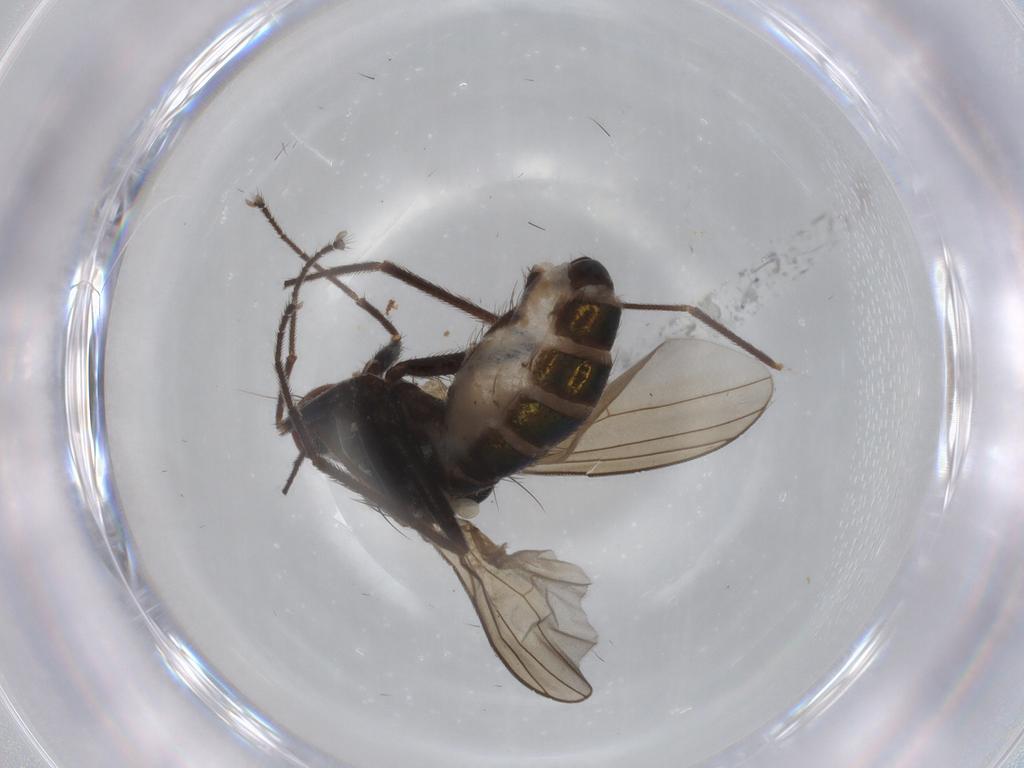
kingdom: Animalia
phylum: Arthropoda
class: Insecta
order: Diptera
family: Dolichopodidae
